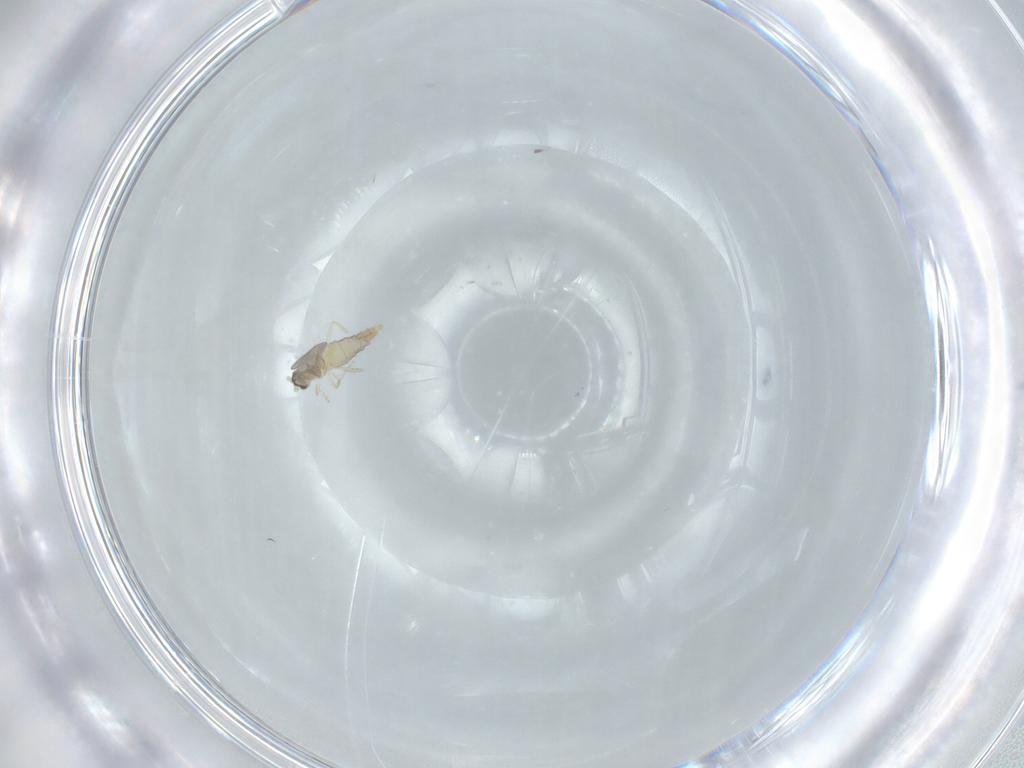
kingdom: Animalia
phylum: Arthropoda
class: Insecta
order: Diptera
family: Cecidomyiidae
